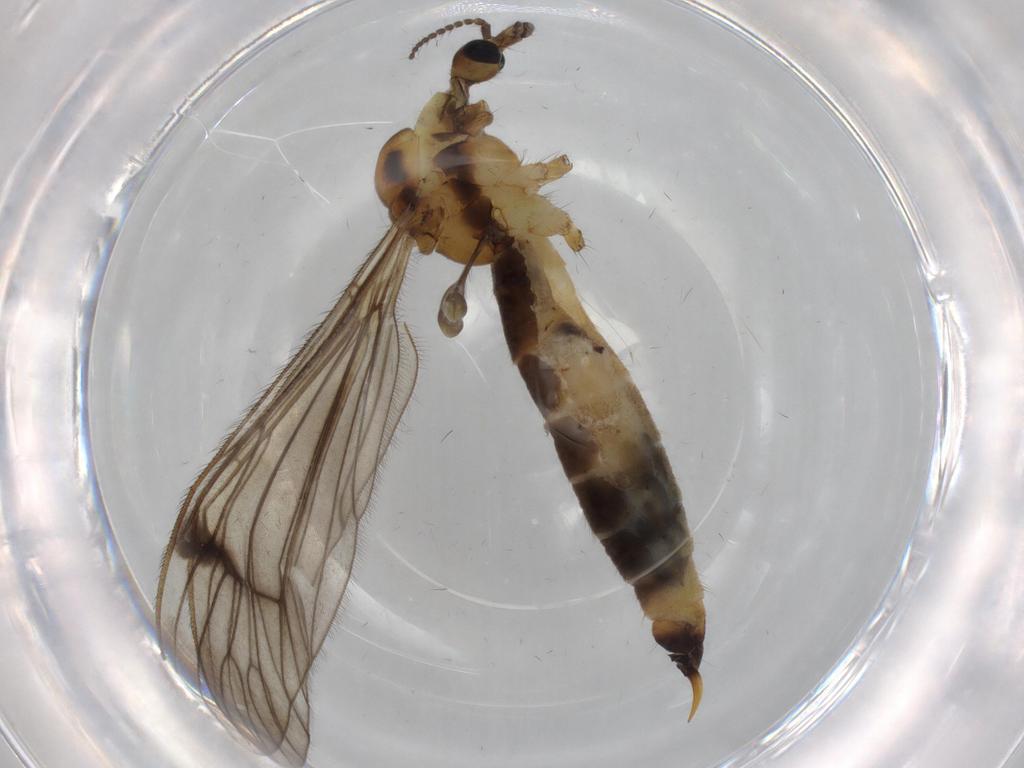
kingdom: Animalia
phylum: Arthropoda
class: Insecta
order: Diptera
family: Limoniidae
